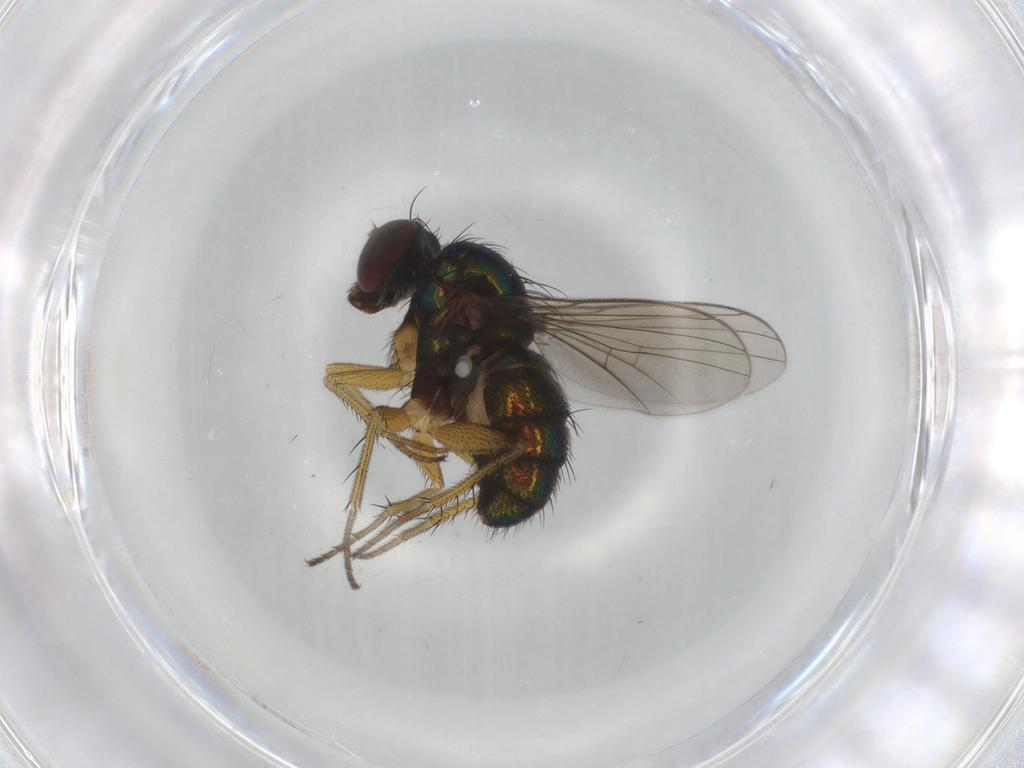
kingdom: Animalia
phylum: Arthropoda
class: Insecta
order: Diptera
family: Dolichopodidae
